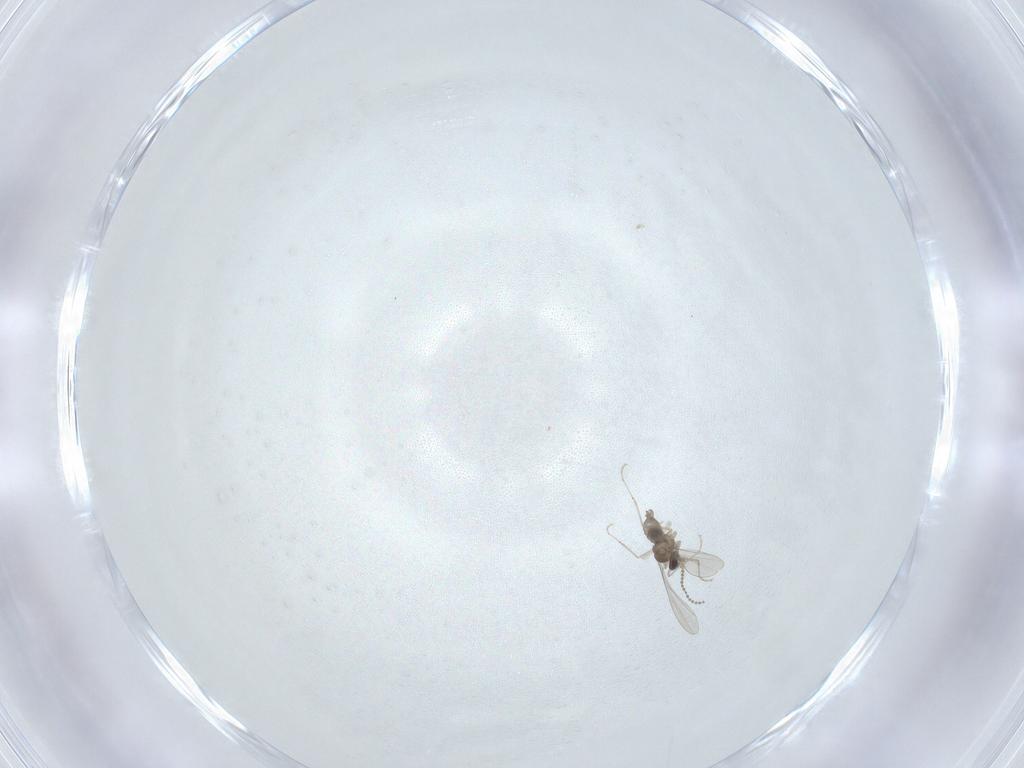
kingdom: Animalia
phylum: Arthropoda
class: Insecta
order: Diptera
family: Cecidomyiidae
